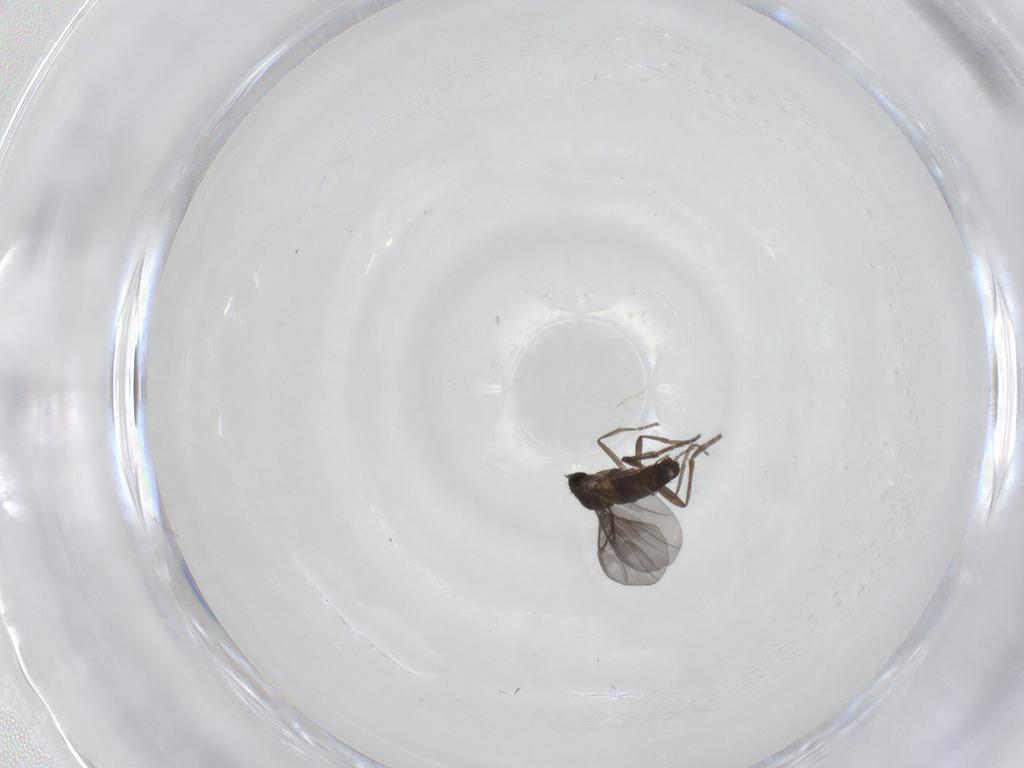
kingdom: Animalia
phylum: Arthropoda
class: Insecta
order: Diptera
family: Phoridae
